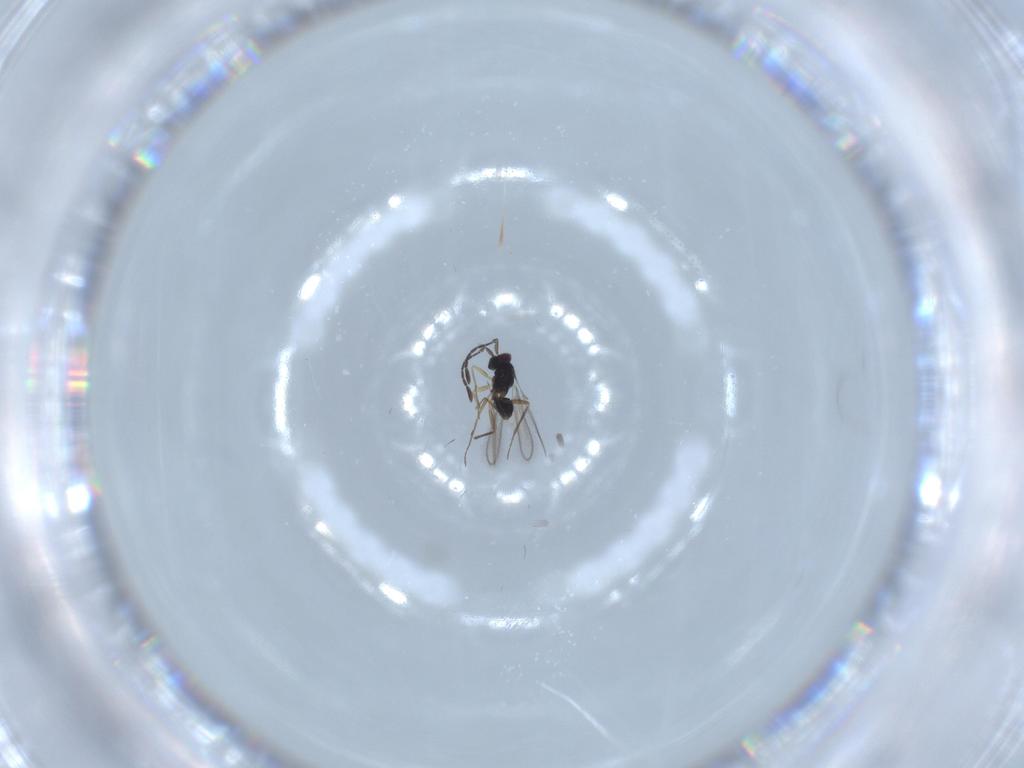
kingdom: Animalia
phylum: Arthropoda
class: Insecta
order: Hymenoptera
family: Mymaridae
